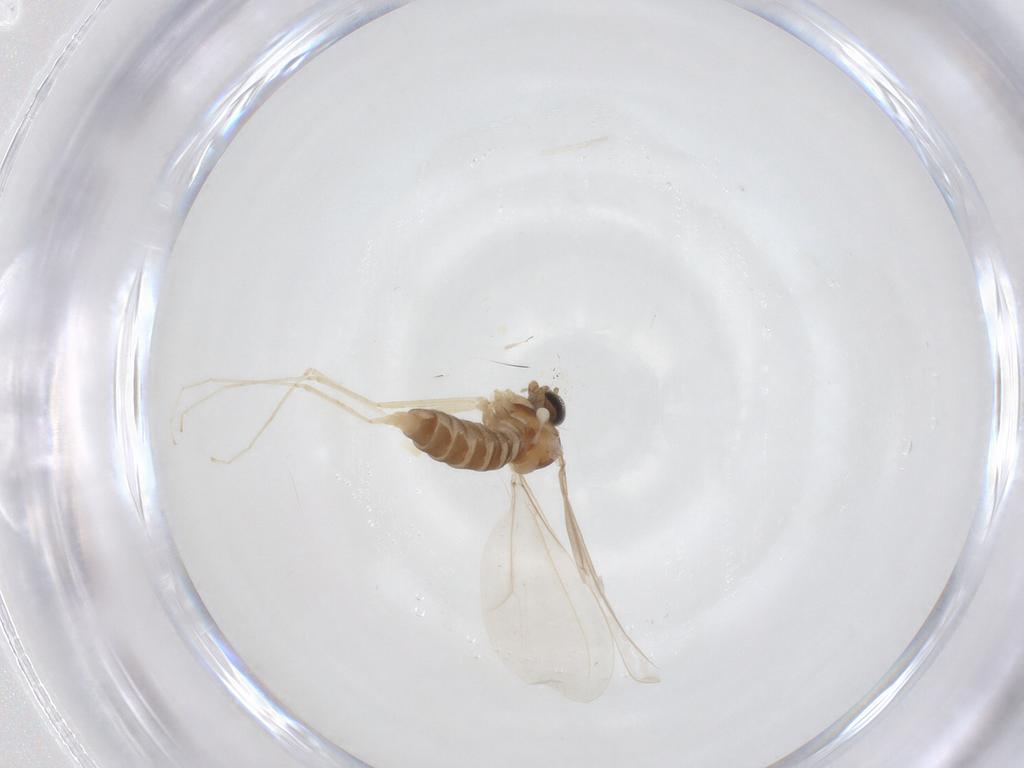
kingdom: Animalia
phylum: Arthropoda
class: Insecta
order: Diptera
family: Cecidomyiidae
